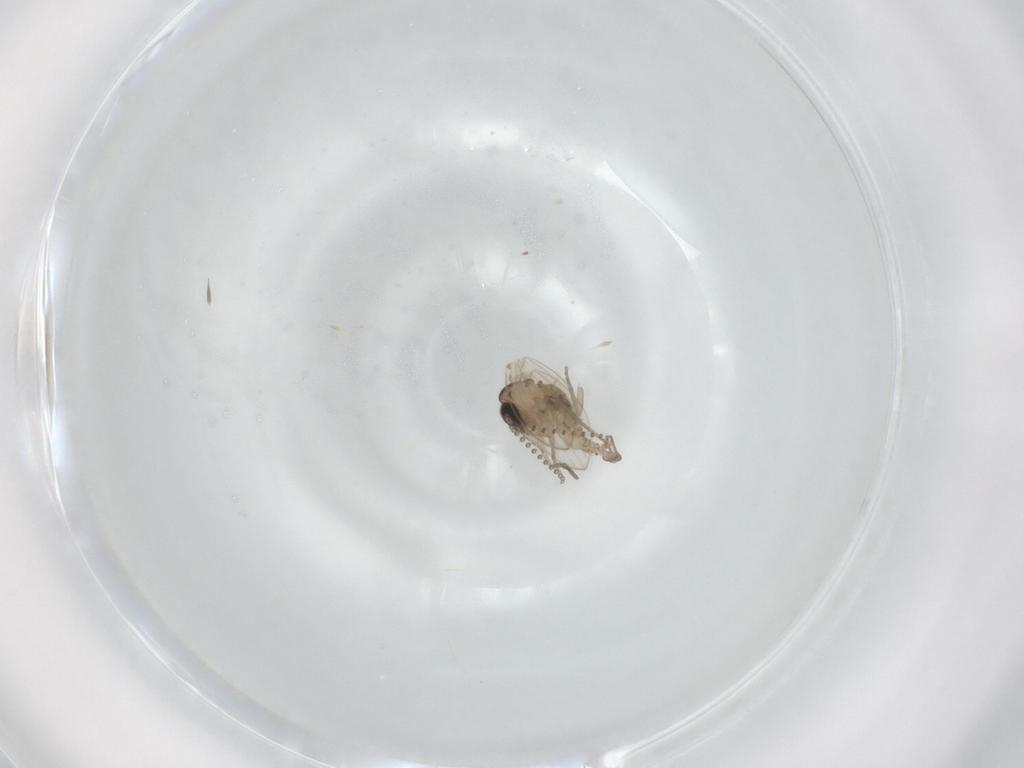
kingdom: Animalia
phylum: Arthropoda
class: Insecta
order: Diptera
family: Psychodidae
